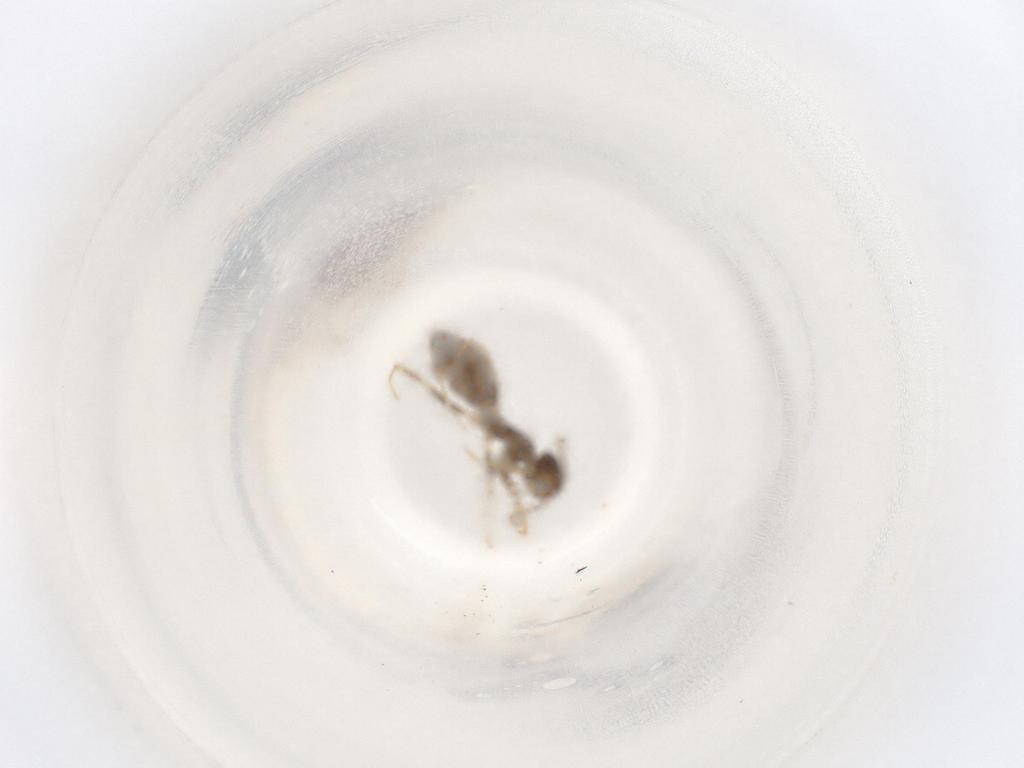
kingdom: Animalia
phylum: Arthropoda
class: Insecta
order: Hymenoptera
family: Formicidae
